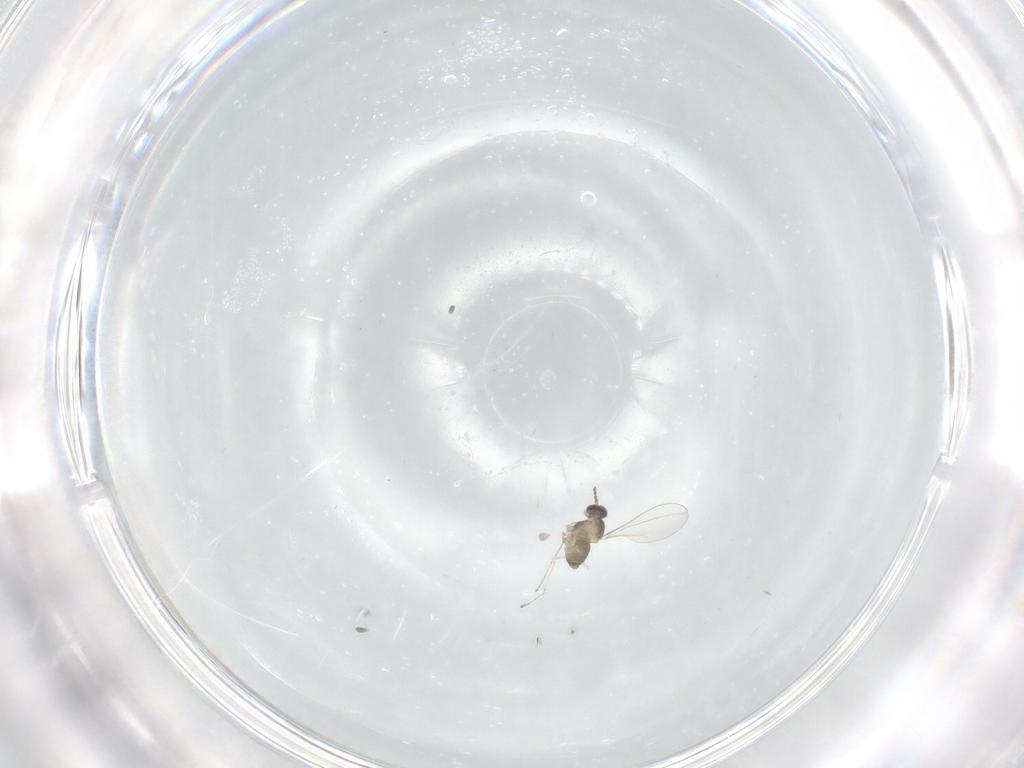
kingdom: Animalia
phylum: Arthropoda
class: Insecta
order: Diptera
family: Cecidomyiidae
